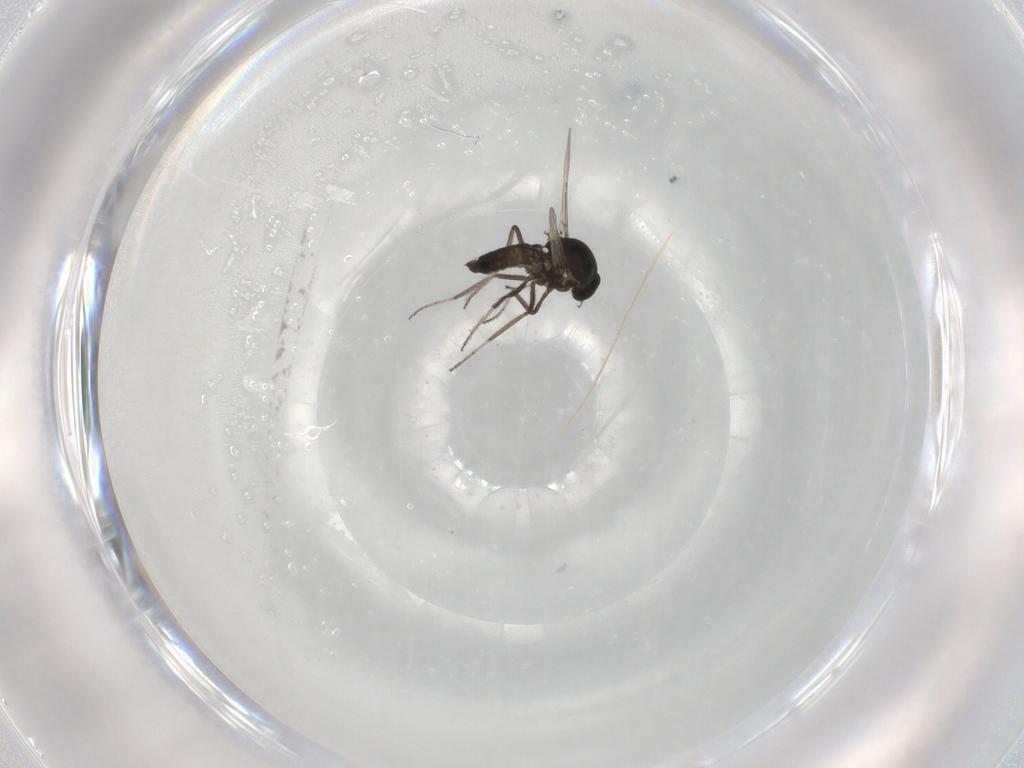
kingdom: Animalia
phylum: Arthropoda
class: Insecta
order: Diptera
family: Ceratopogonidae
